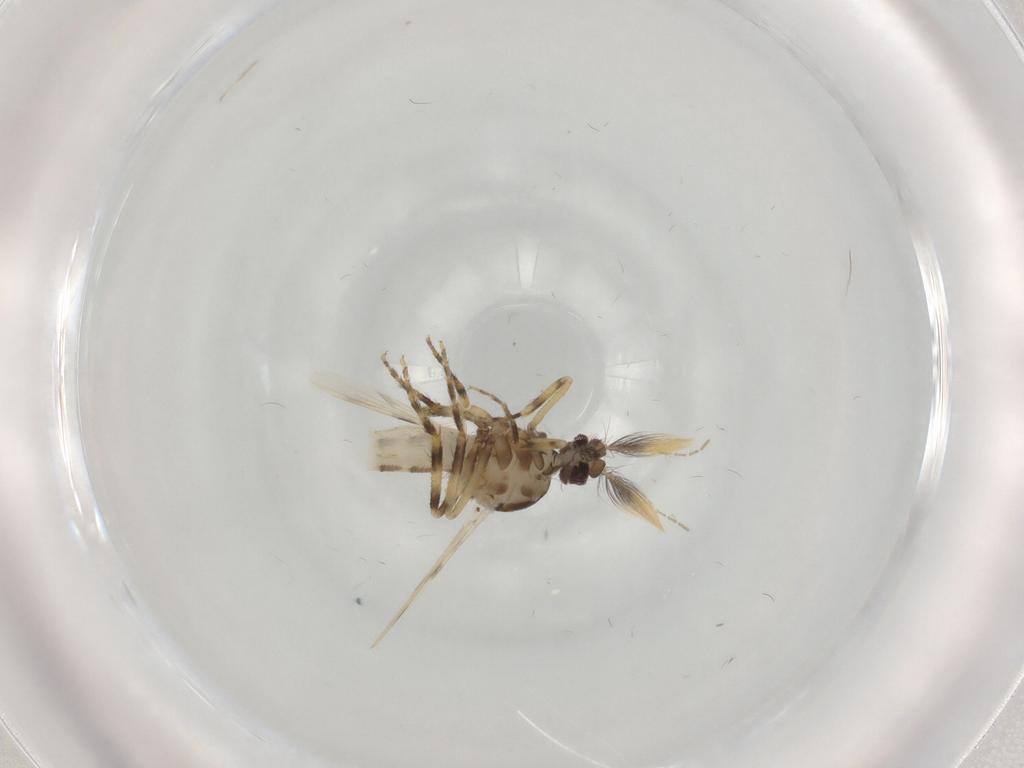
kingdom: Animalia
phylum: Arthropoda
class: Insecta
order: Diptera
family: Ceratopogonidae
